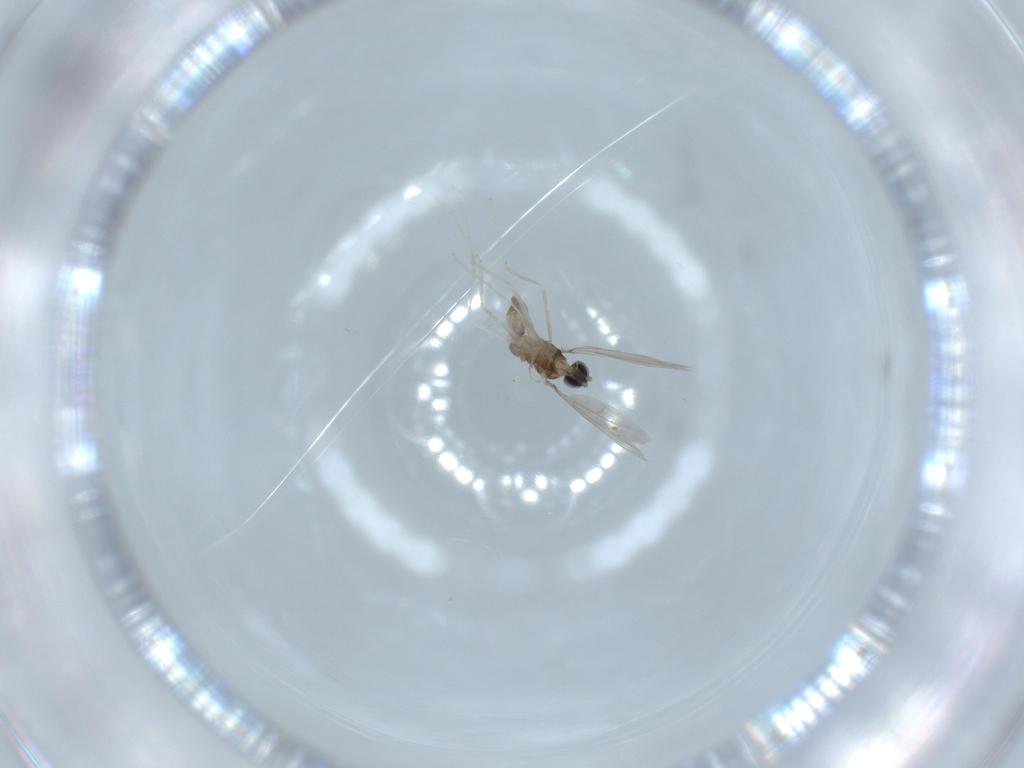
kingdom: Animalia
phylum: Arthropoda
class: Insecta
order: Diptera
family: Cecidomyiidae
